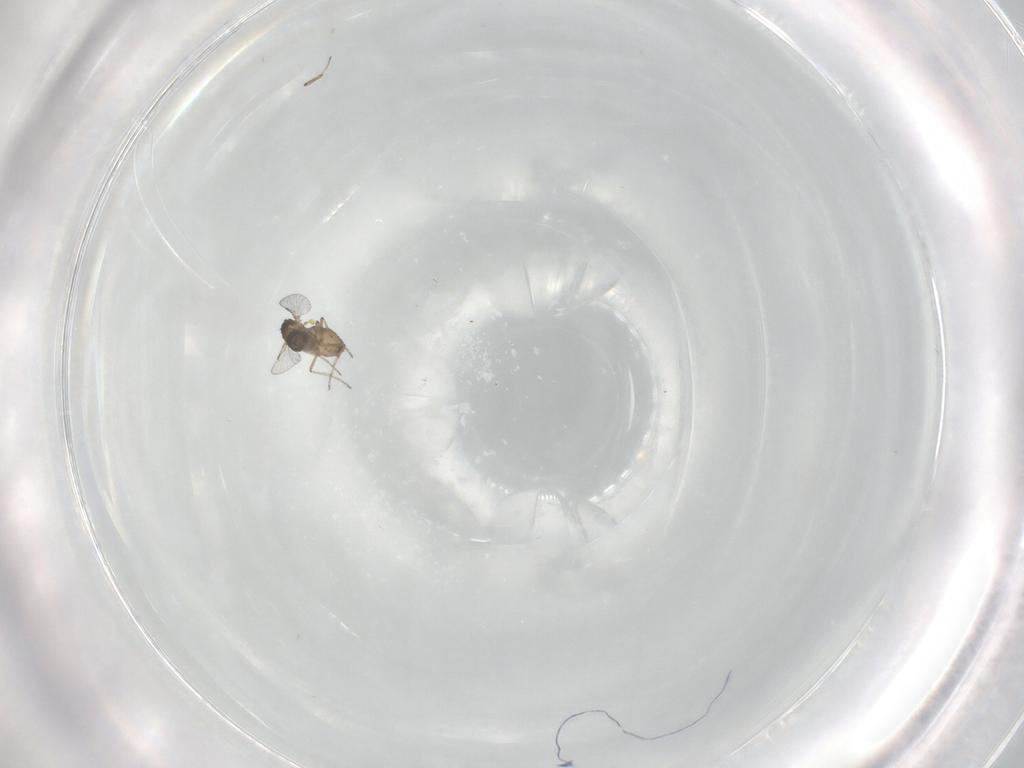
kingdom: Animalia
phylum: Arthropoda
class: Insecta
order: Diptera
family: Ceratopogonidae
